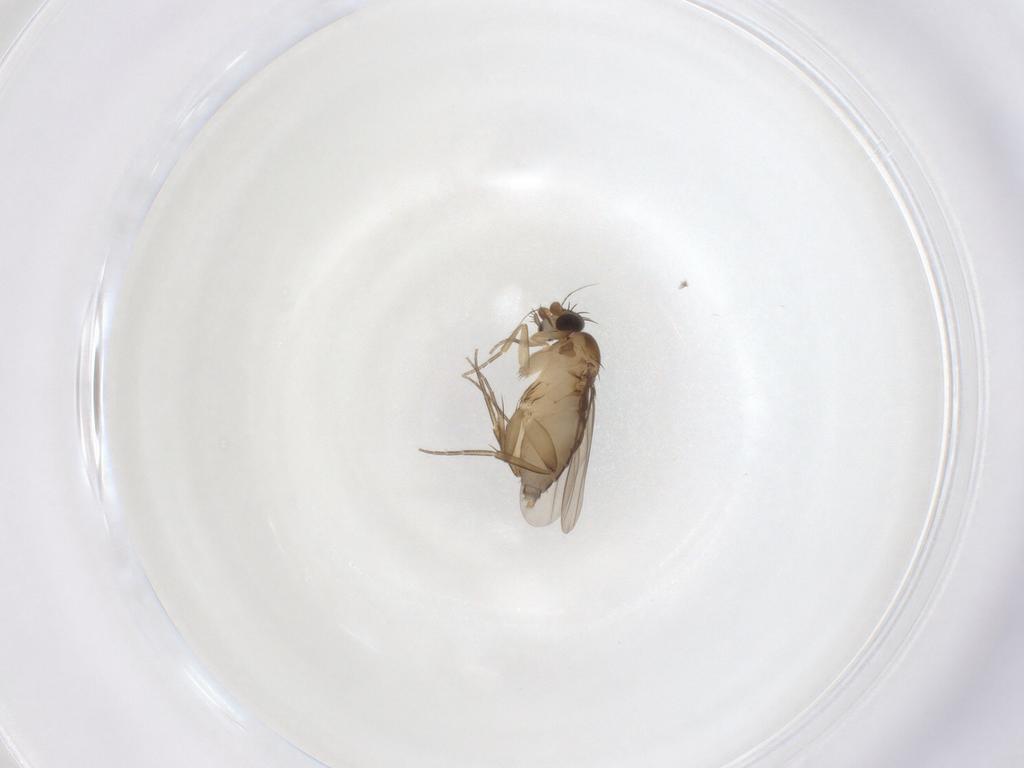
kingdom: Animalia
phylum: Arthropoda
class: Insecta
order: Diptera
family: Phoridae
